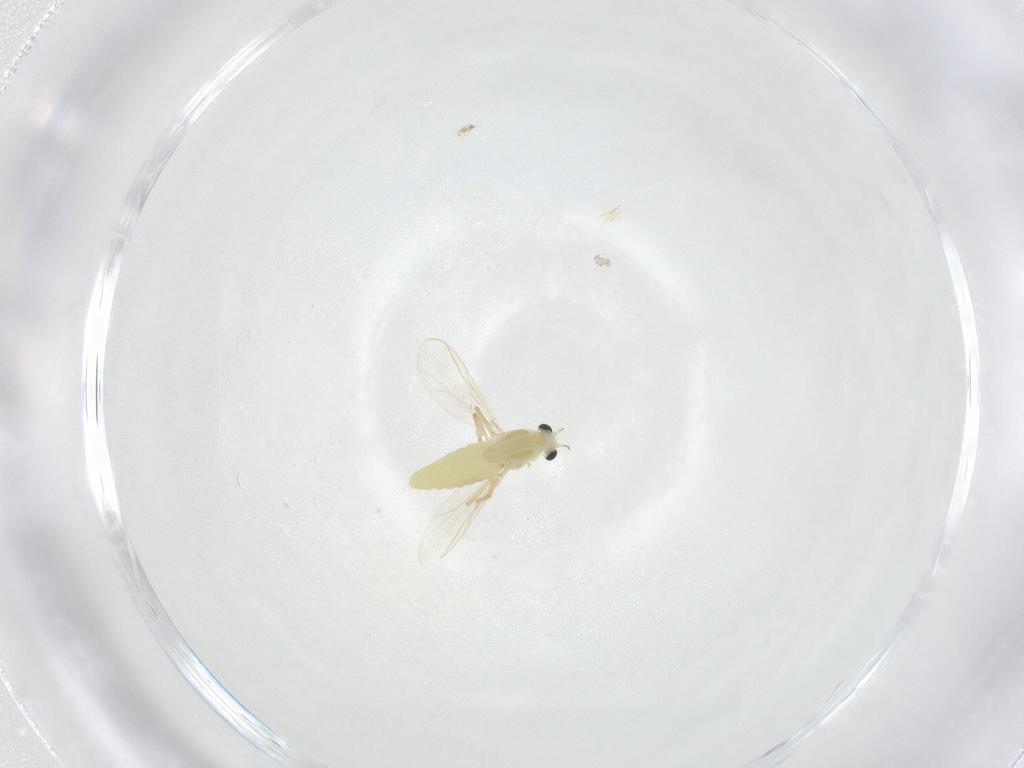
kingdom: Animalia
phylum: Arthropoda
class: Insecta
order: Diptera
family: Chironomidae
